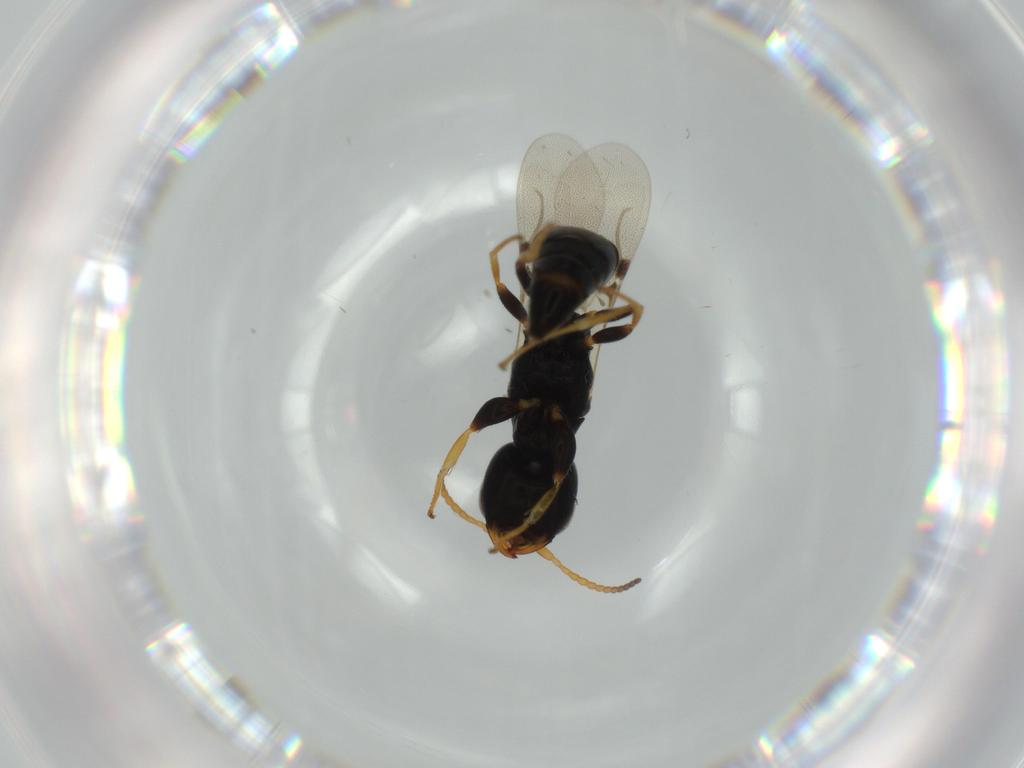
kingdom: Animalia
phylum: Arthropoda
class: Insecta
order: Hymenoptera
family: Bethylidae
